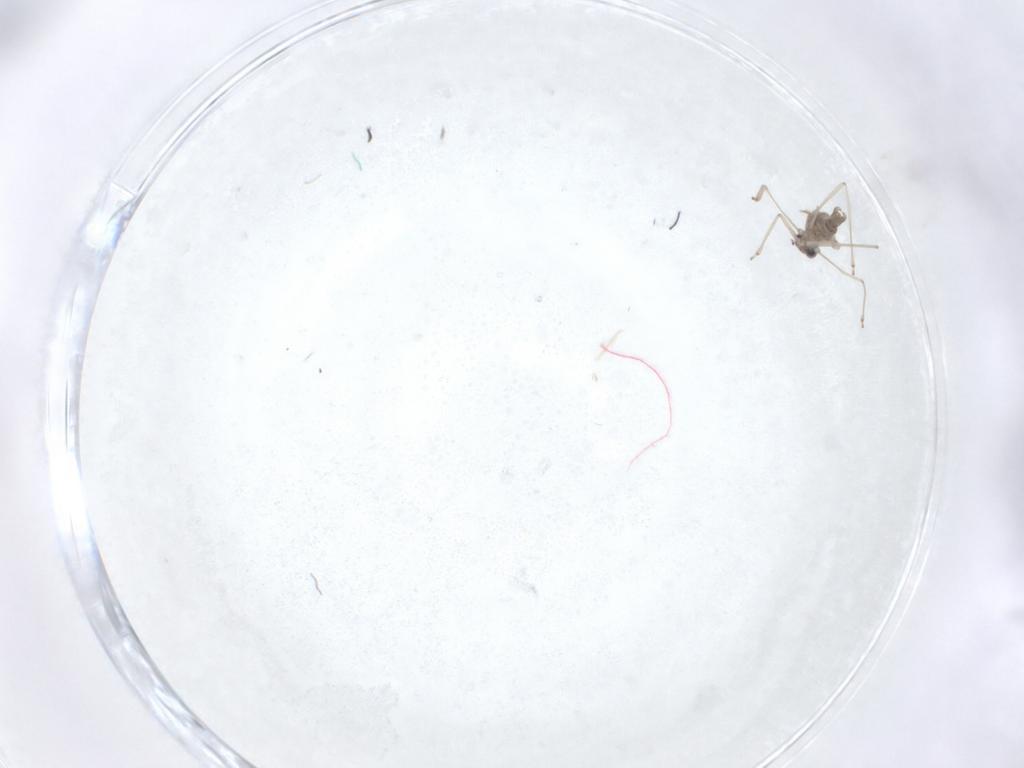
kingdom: Animalia
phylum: Arthropoda
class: Insecta
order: Diptera
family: Cecidomyiidae
